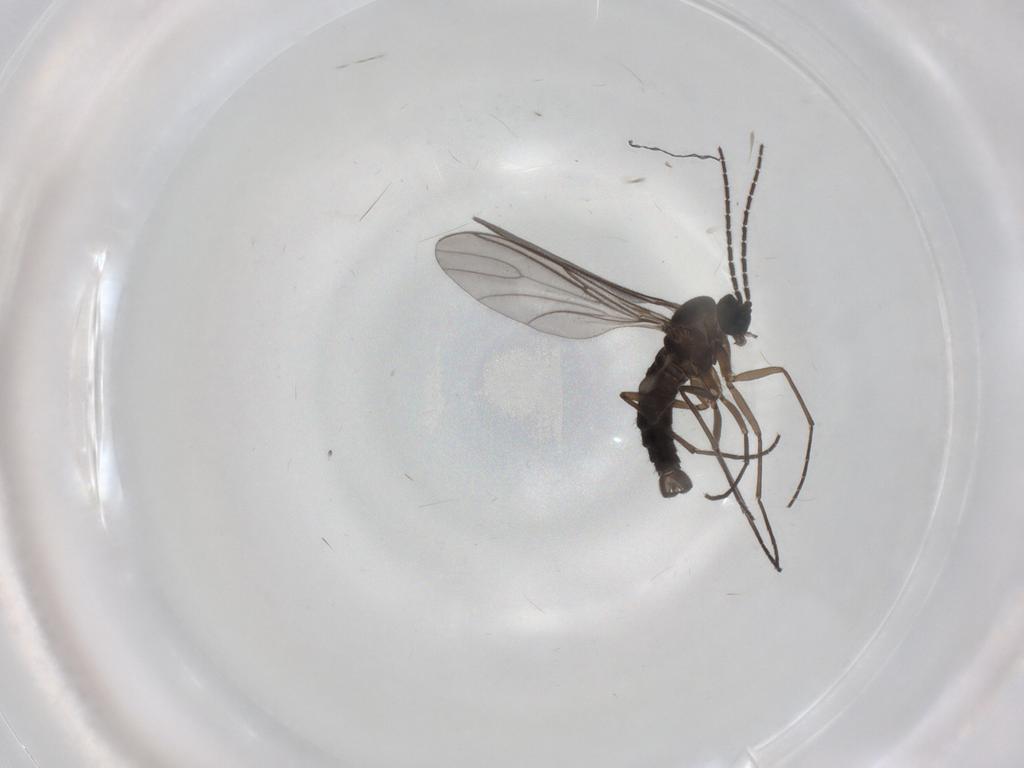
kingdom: Animalia
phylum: Arthropoda
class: Insecta
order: Diptera
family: Sciaridae
